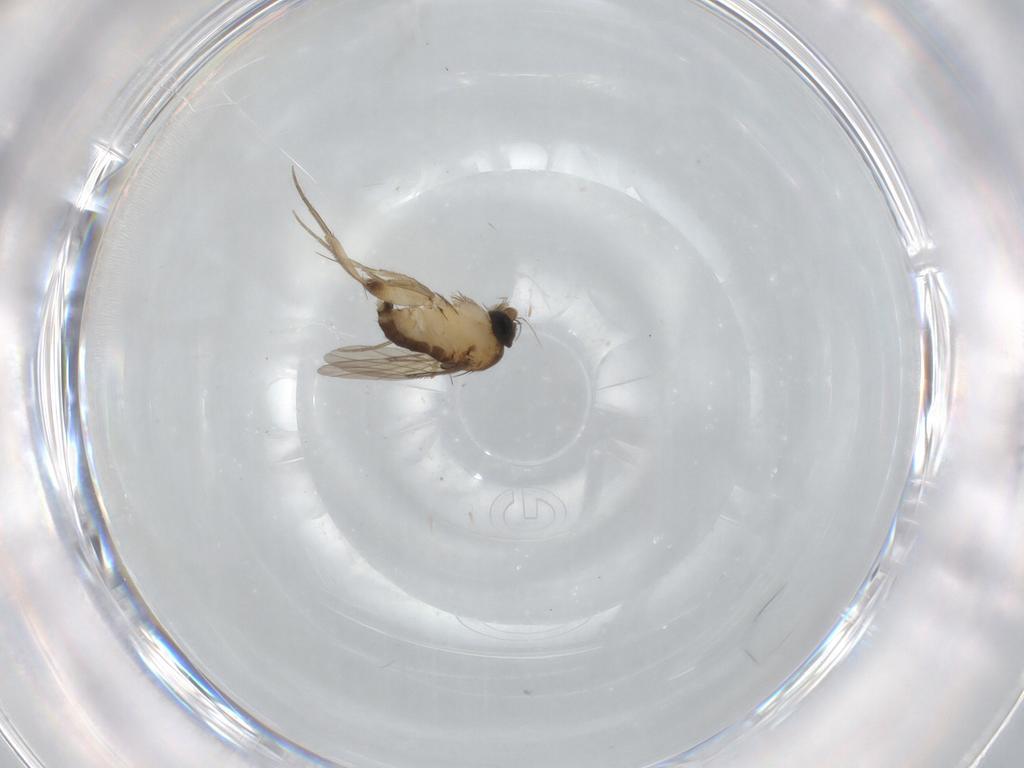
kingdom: Animalia
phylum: Arthropoda
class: Insecta
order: Diptera
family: Phoridae
